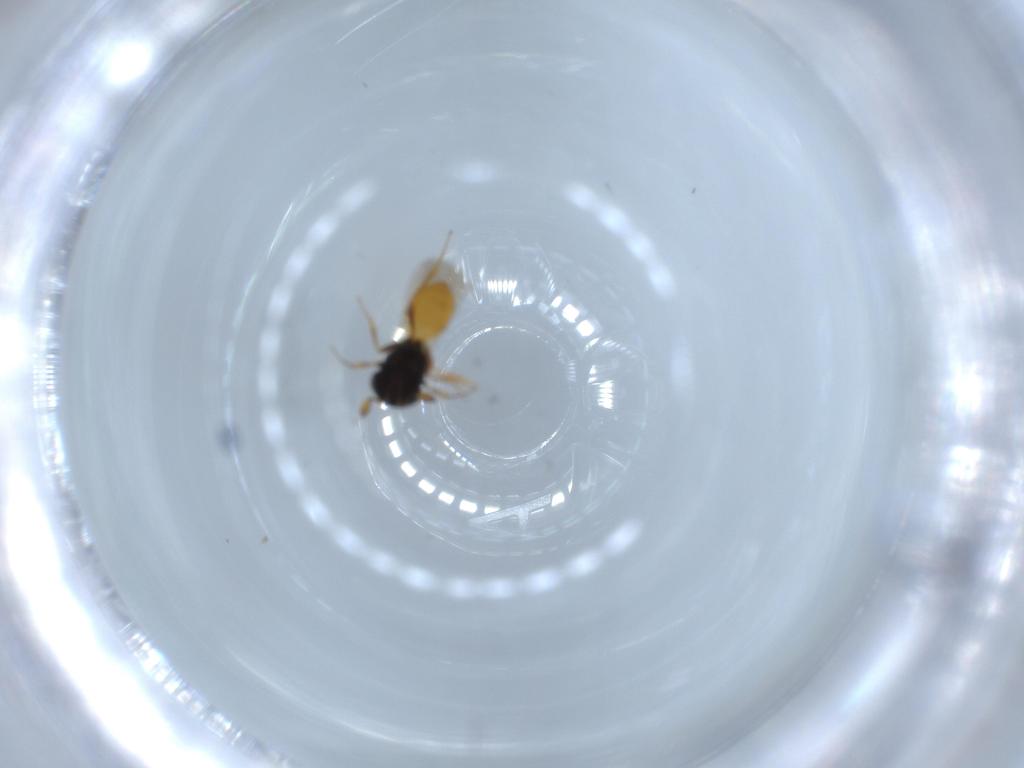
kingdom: Animalia
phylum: Arthropoda
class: Insecta
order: Hymenoptera
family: Scelionidae
